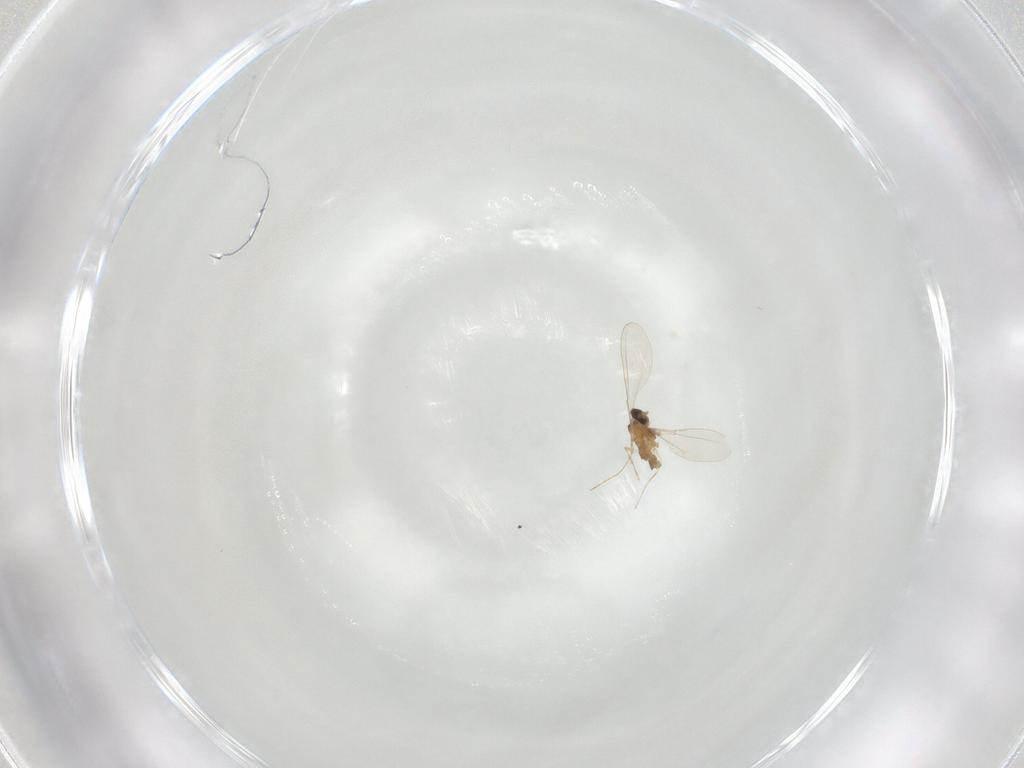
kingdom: Animalia
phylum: Arthropoda
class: Insecta
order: Diptera
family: Cecidomyiidae
